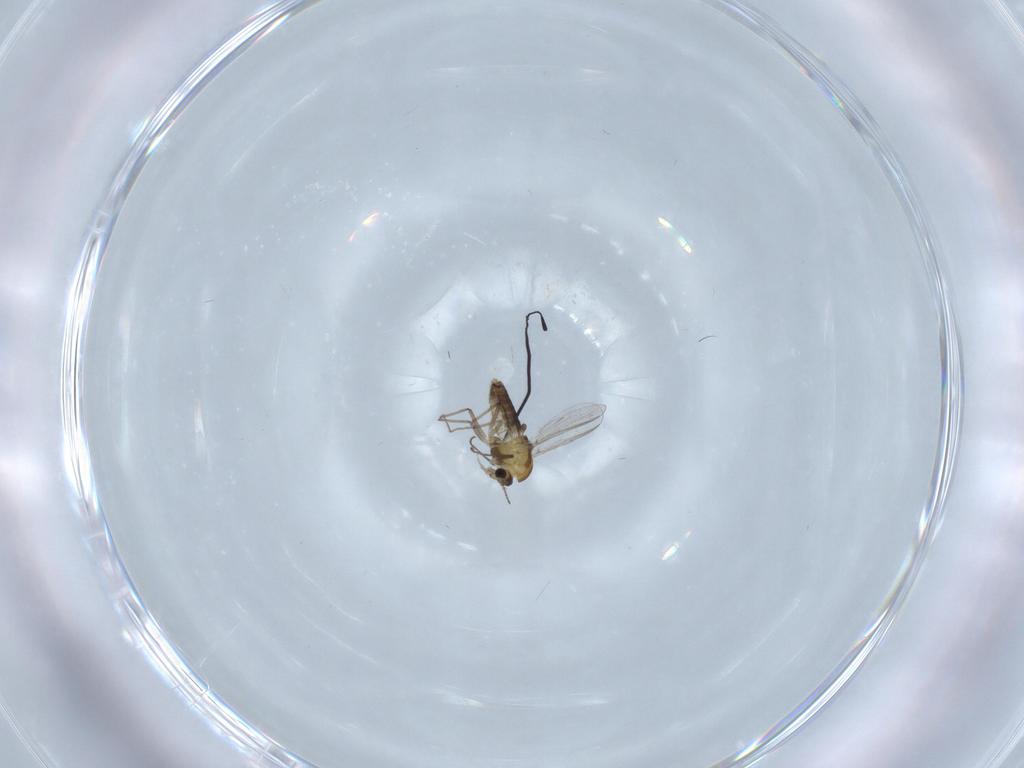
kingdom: Animalia
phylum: Arthropoda
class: Insecta
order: Diptera
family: Chironomidae
